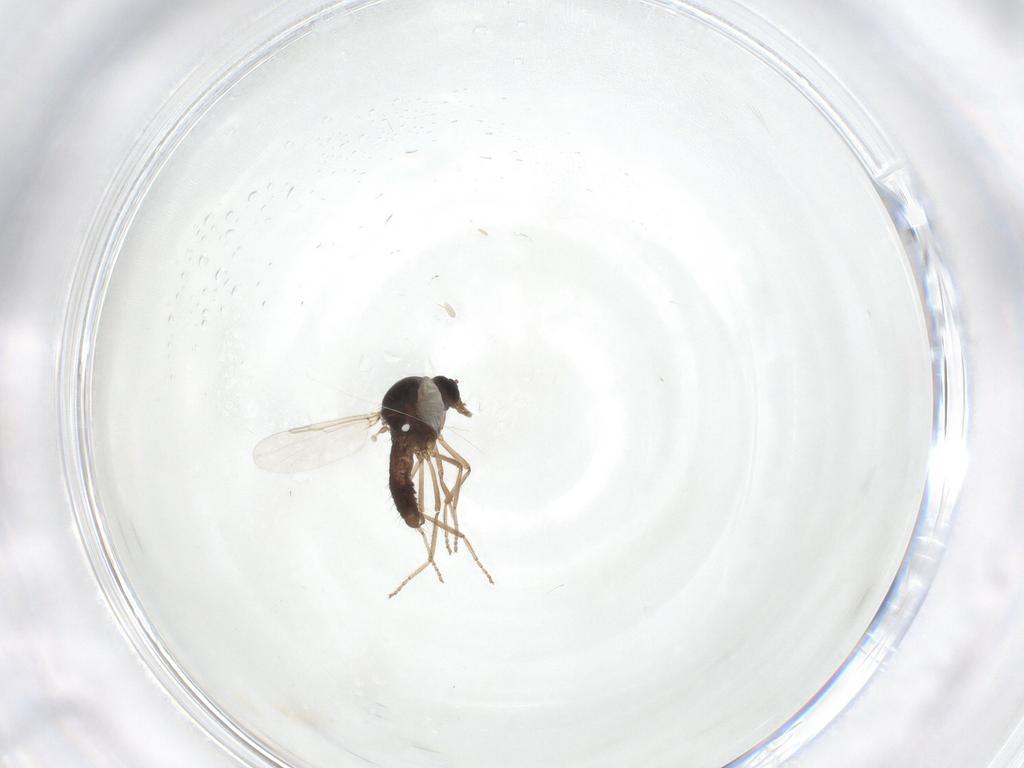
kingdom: Animalia
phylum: Arthropoda
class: Insecta
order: Diptera
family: Ceratopogonidae
